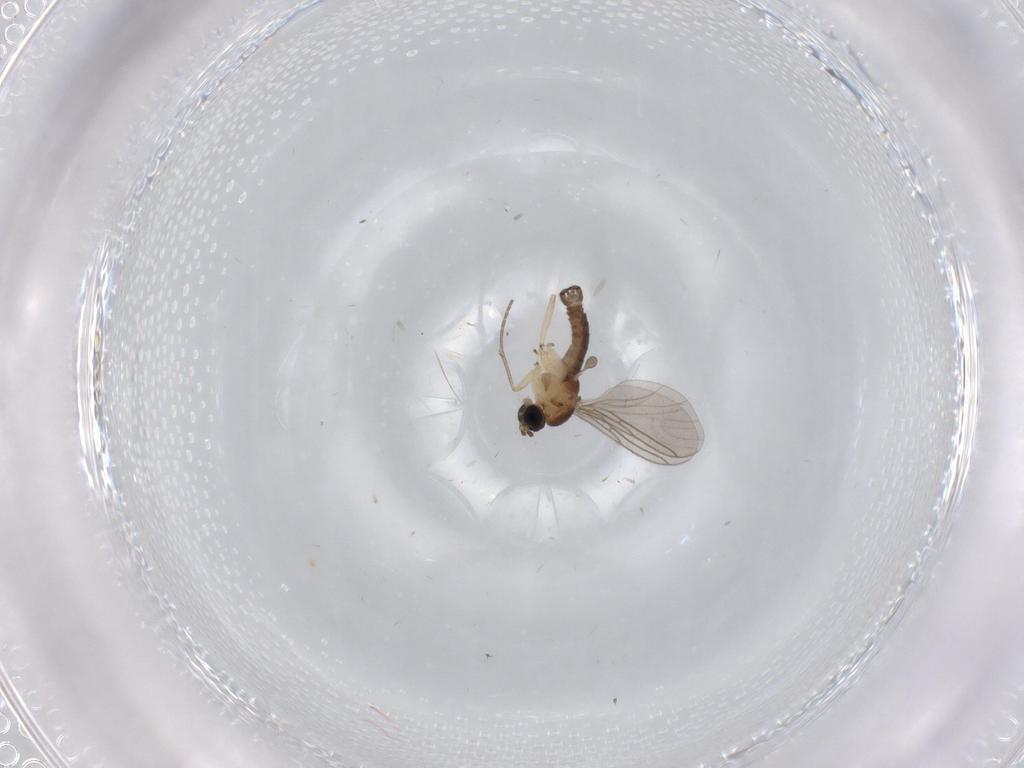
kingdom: Animalia
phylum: Arthropoda
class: Insecta
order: Diptera
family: Sciaridae
